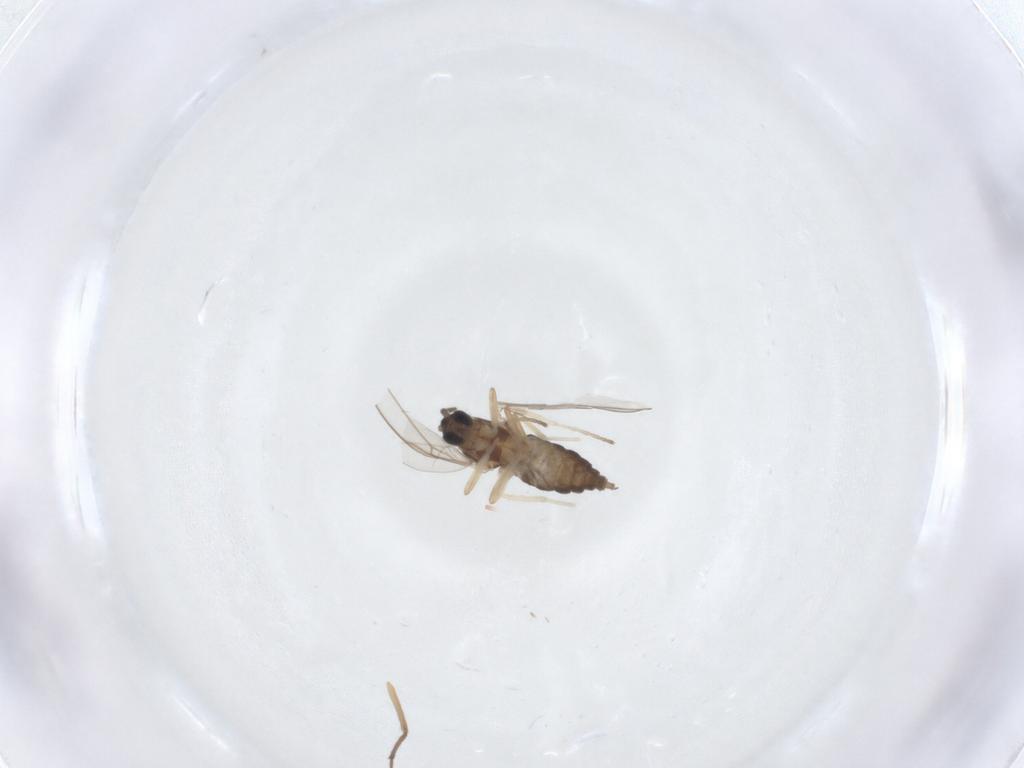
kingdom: Animalia
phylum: Arthropoda
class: Insecta
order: Diptera
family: Cecidomyiidae
